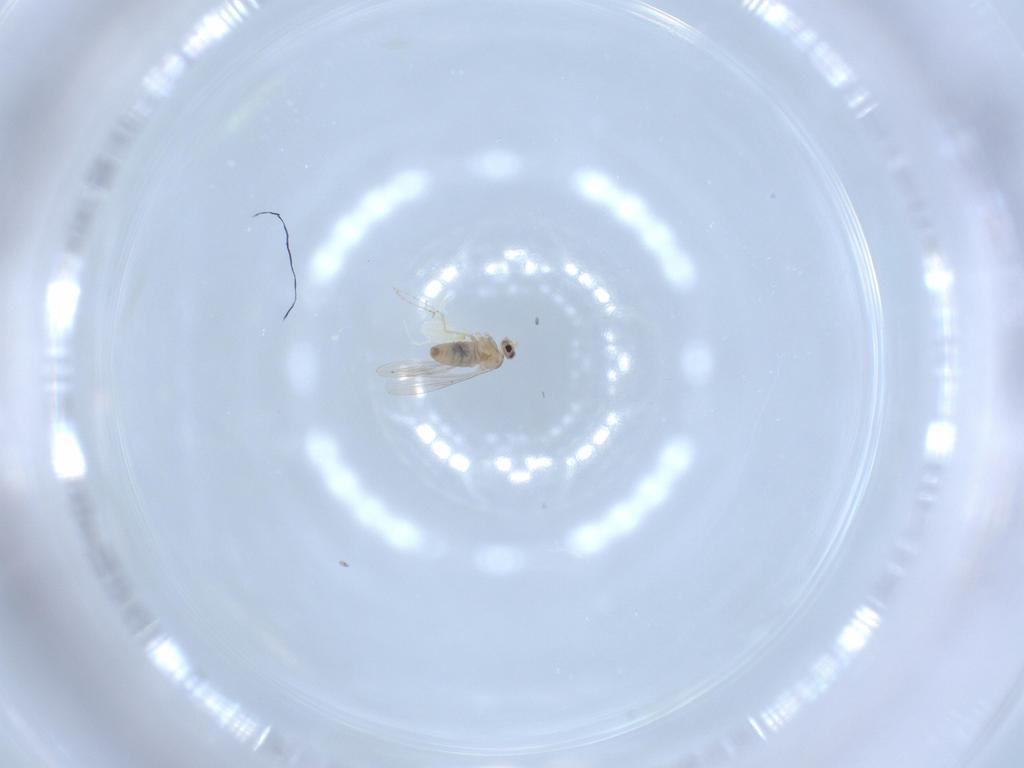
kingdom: Animalia
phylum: Arthropoda
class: Insecta
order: Diptera
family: Cecidomyiidae
